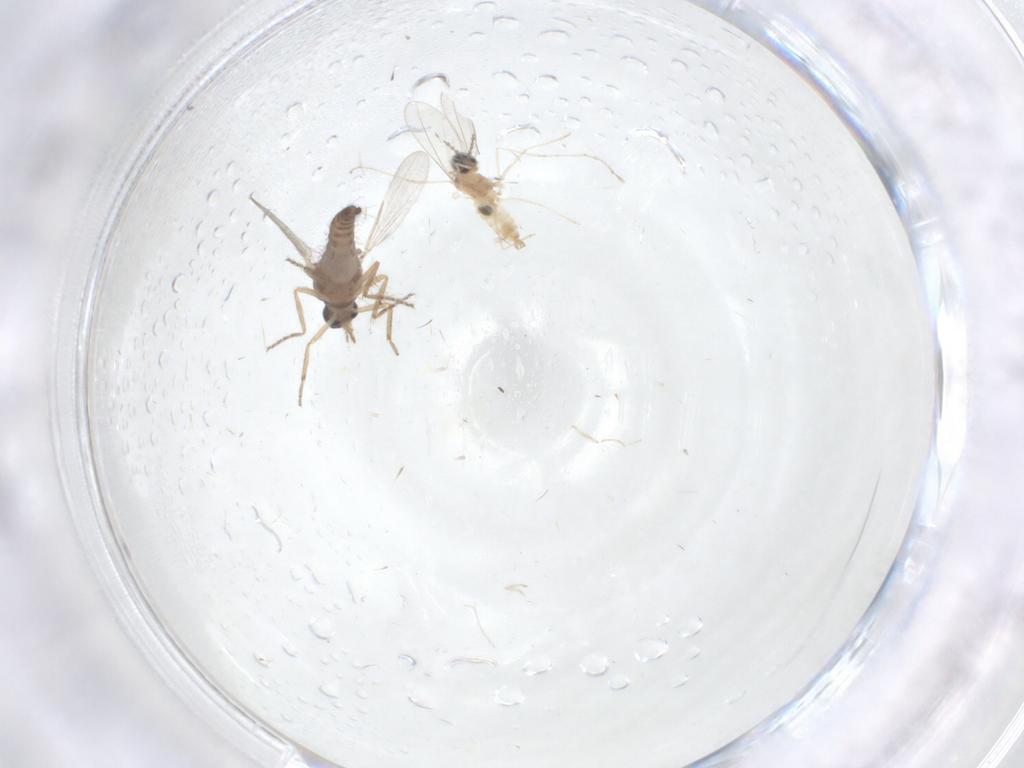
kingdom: Animalia
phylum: Arthropoda
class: Insecta
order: Diptera
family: Ceratopogonidae
